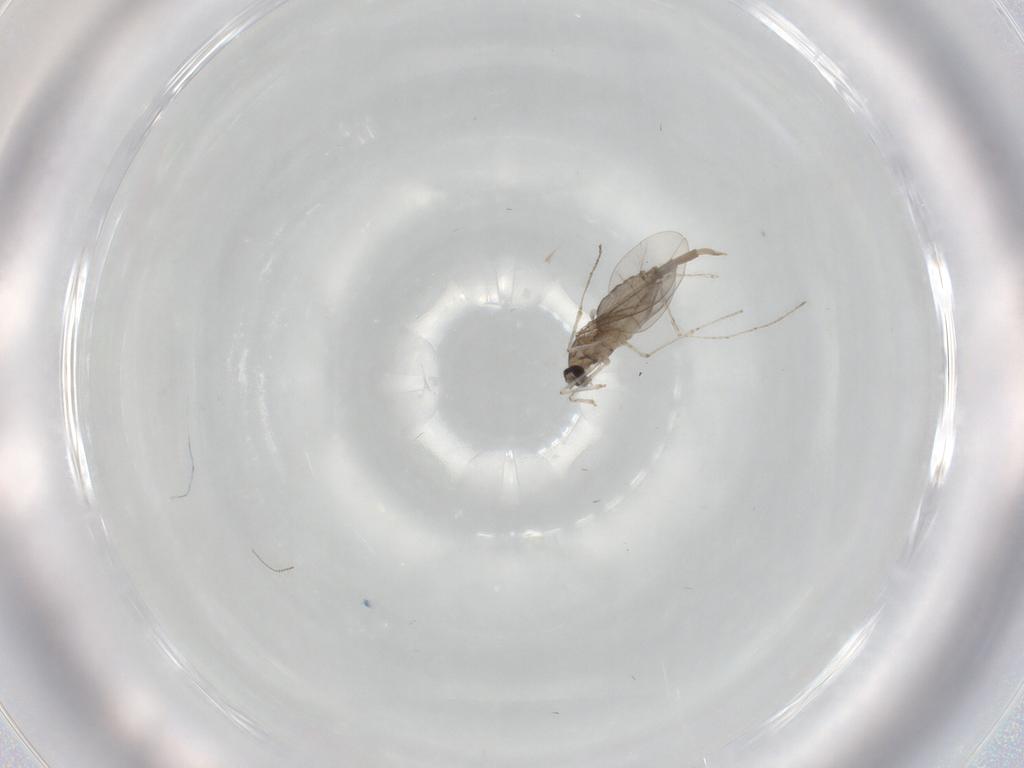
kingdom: Animalia
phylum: Arthropoda
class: Insecta
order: Diptera
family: Cecidomyiidae
